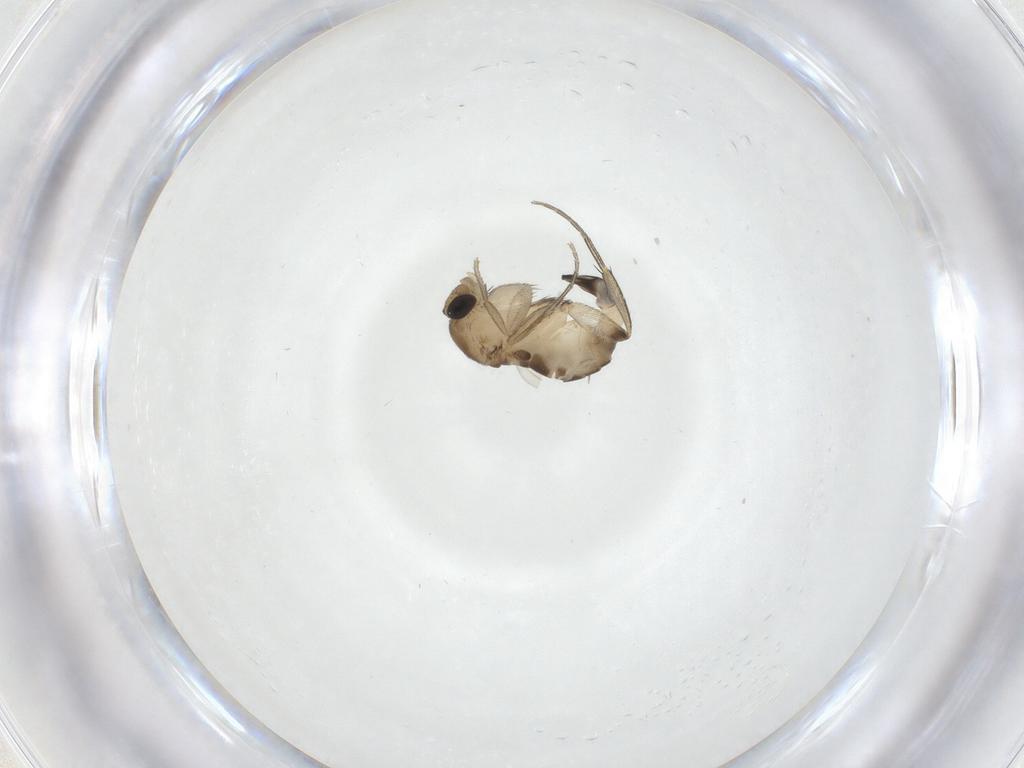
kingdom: Animalia
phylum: Arthropoda
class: Insecta
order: Diptera
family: Phoridae
